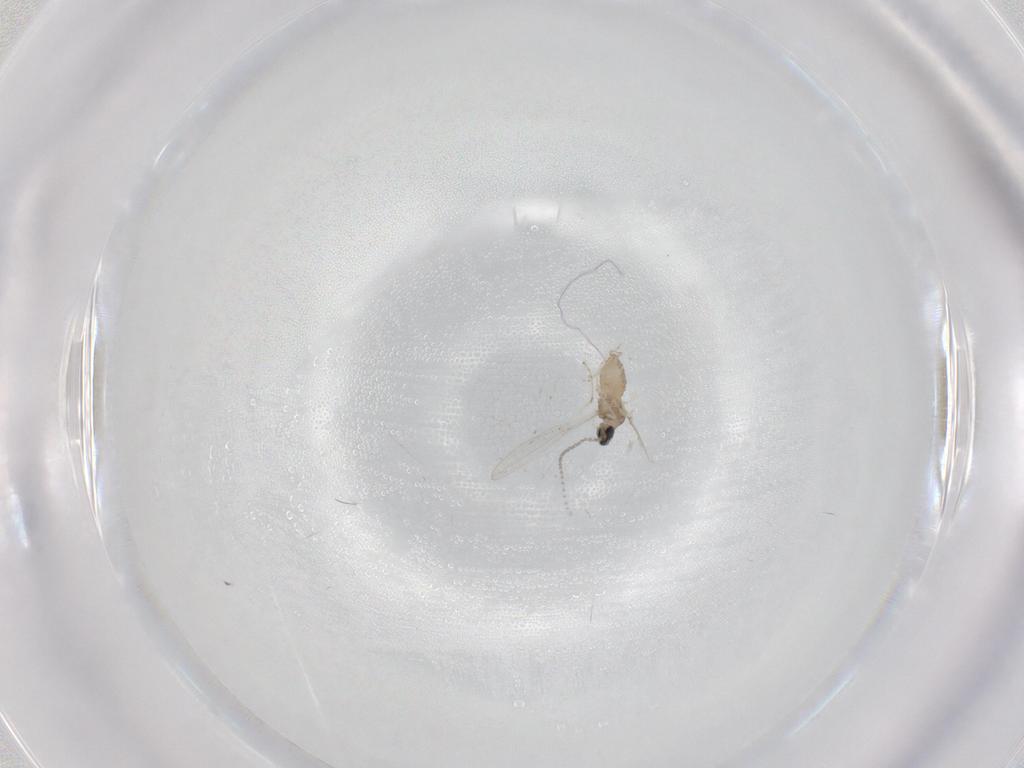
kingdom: Animalia
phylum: Arthropoda
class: Insecta
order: Diptera
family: Cecidomyiidae
